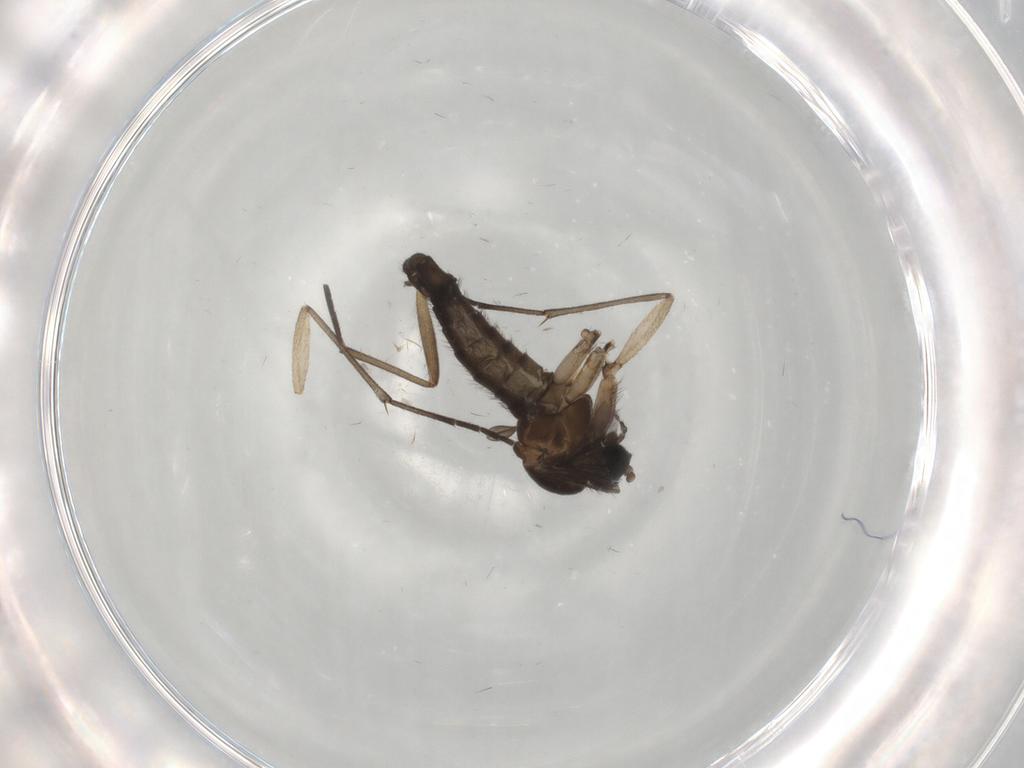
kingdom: Animalia
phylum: Arthropoda
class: Insecta
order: Diptera
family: Sciaridae
